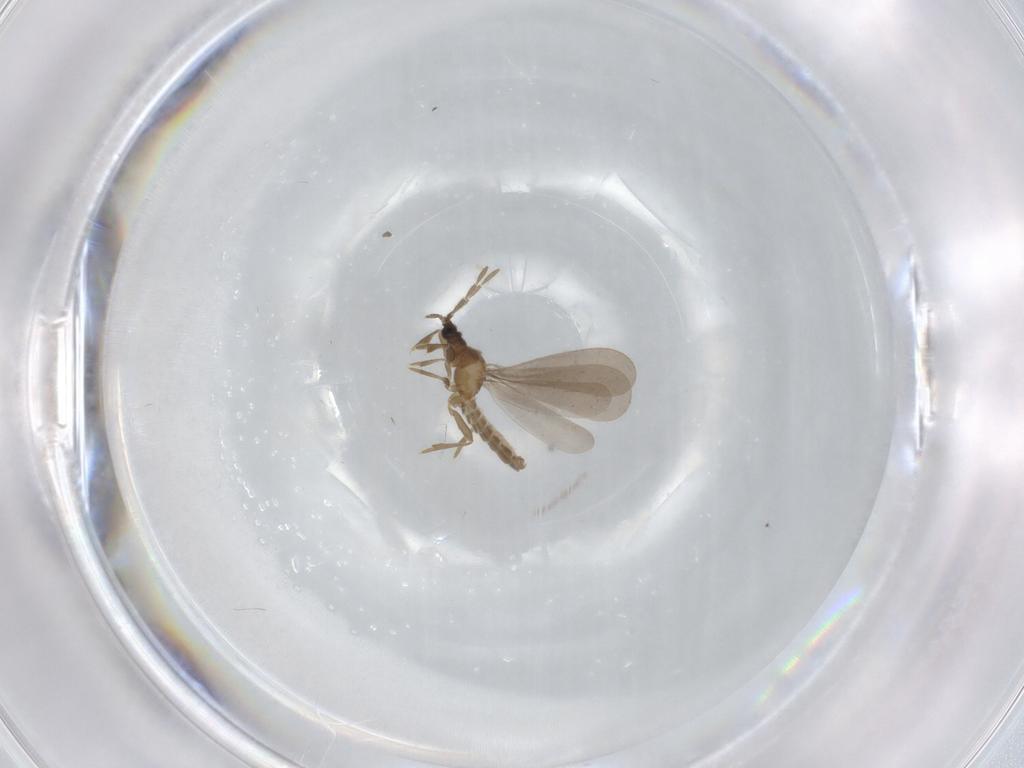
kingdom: Animalia
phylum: Arthropoda
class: Insecta
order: Hemiptera
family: Enicocephalidae
